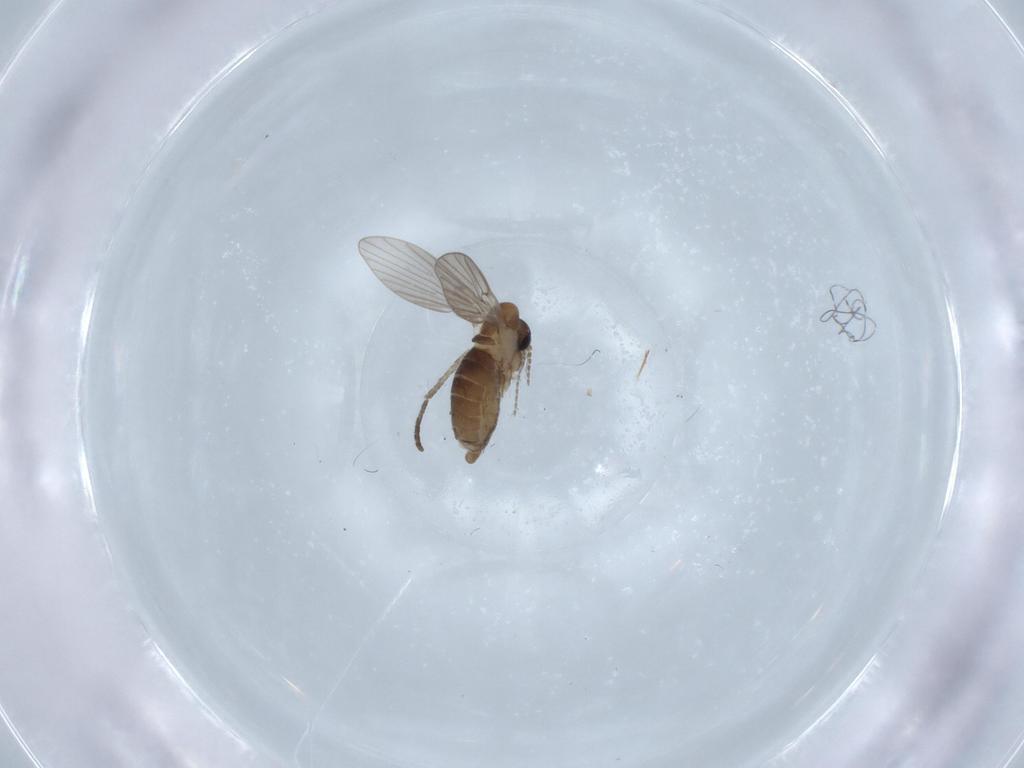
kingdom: Animalia
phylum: Arthropoda
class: Insecta
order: Diptera
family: Psychodidae
